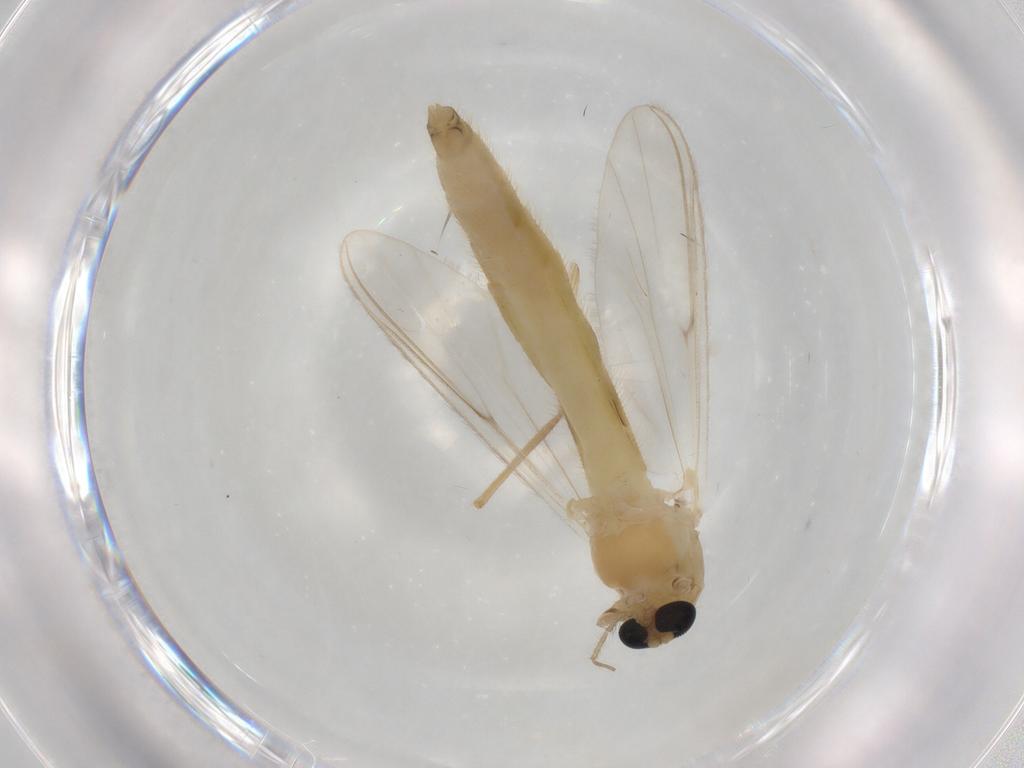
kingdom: Animalia
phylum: Arthropoda
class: Insecta
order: Diptera
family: Chironomidae
